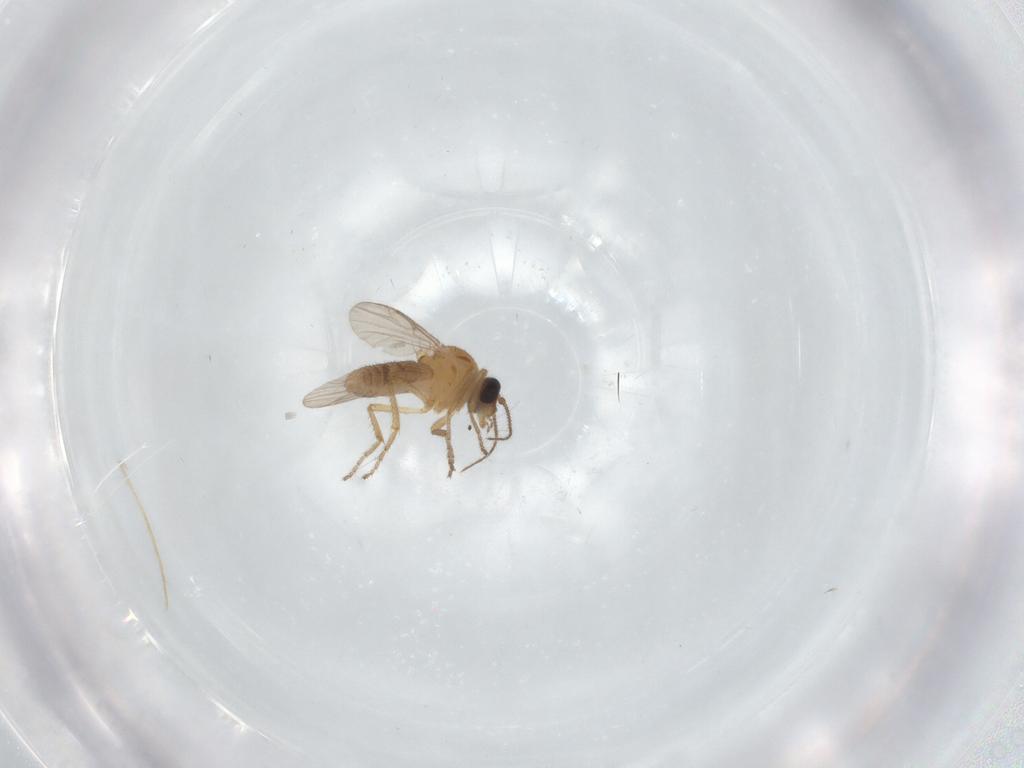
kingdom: Animalia
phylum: Arthropoda
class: Insecta
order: Diptera
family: Ceratopogonidae
